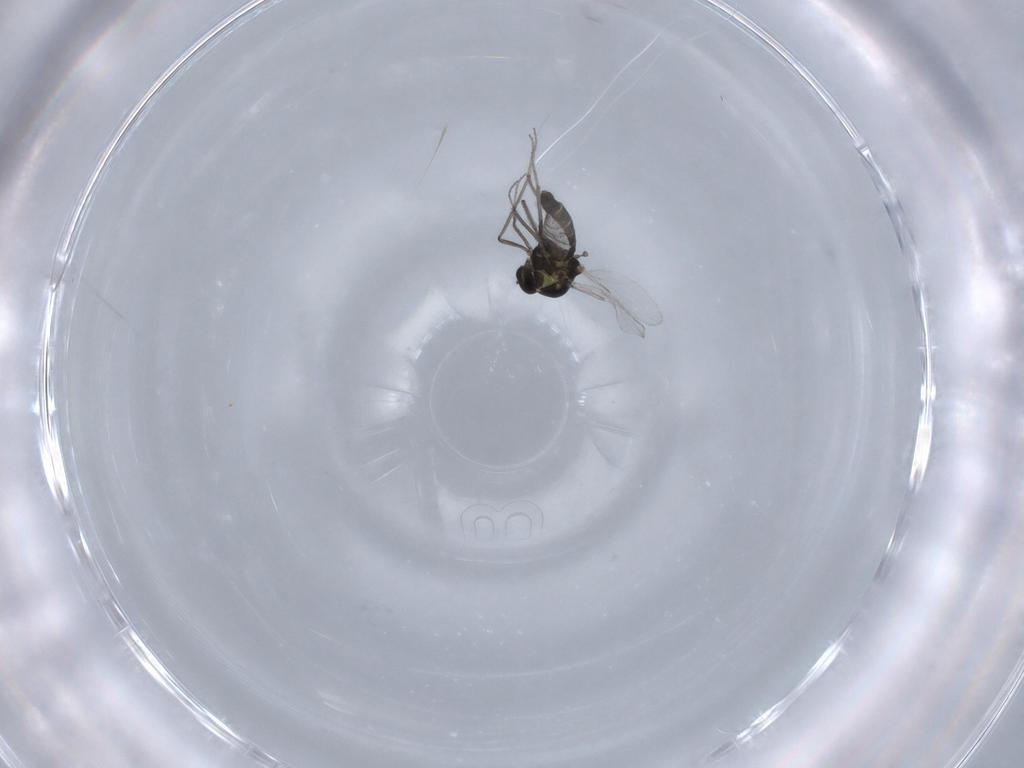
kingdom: Animalia
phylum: Arthropoda
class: Insecta
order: Diptera
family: Ceratopogonidae
